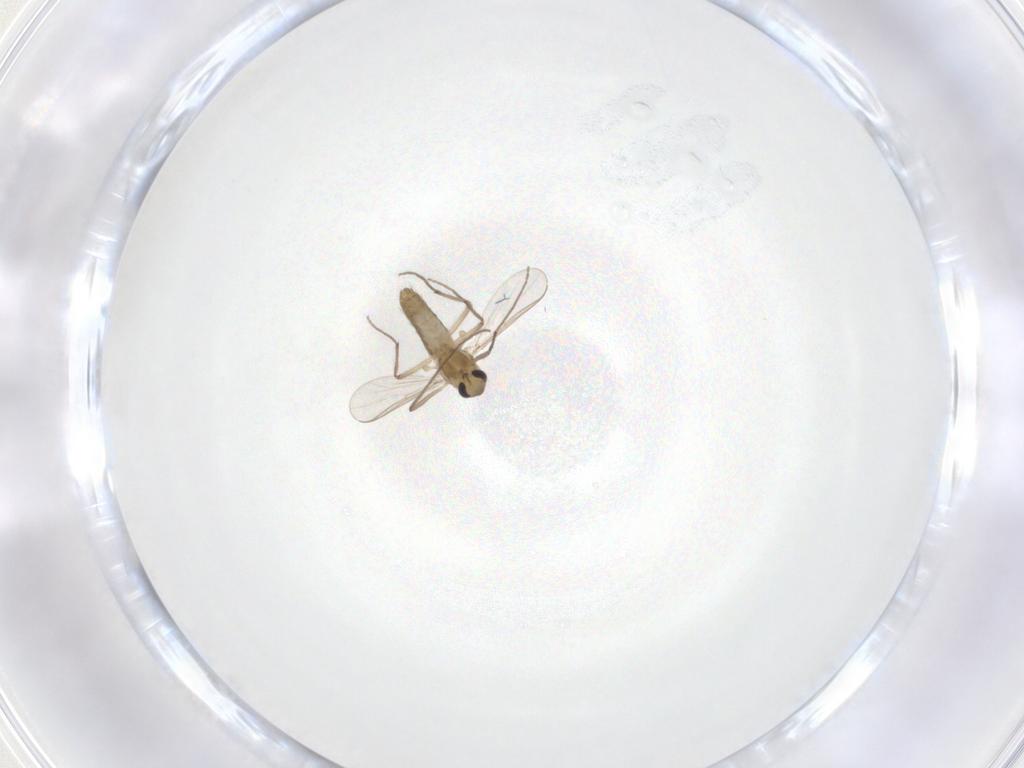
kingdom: Animalia
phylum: Arthropoda
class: Insecta
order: Diptera
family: Chironomidae
